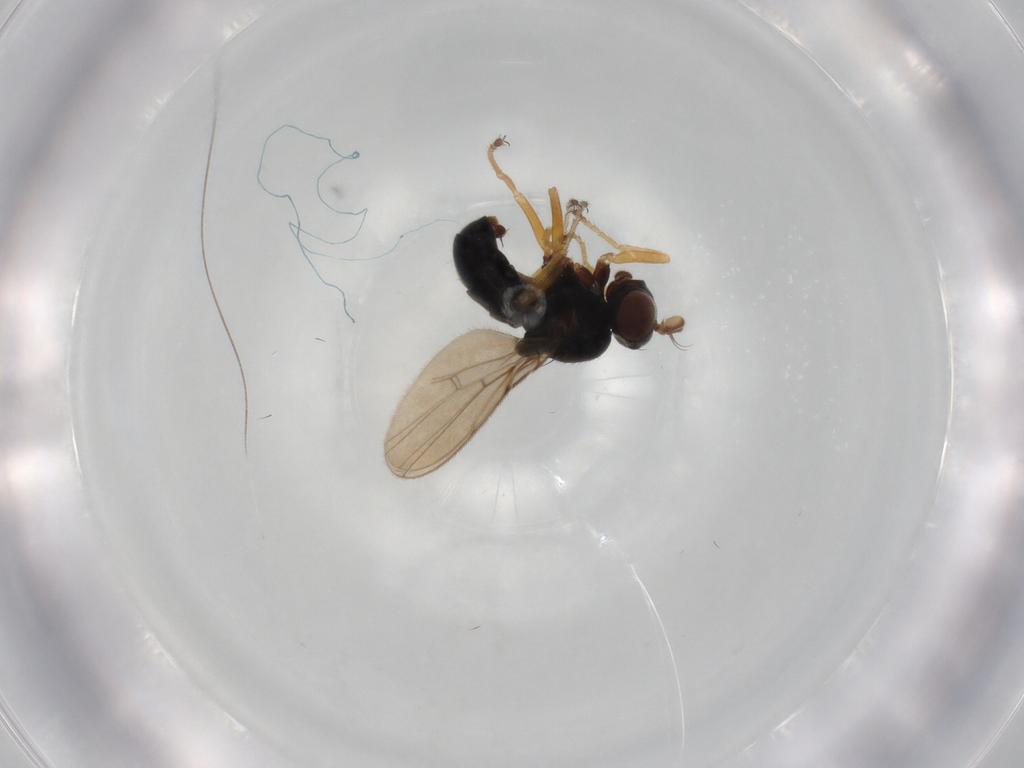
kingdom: Animalia
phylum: Arthropoda
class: Insecta
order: Diptera
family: Ephydridae
